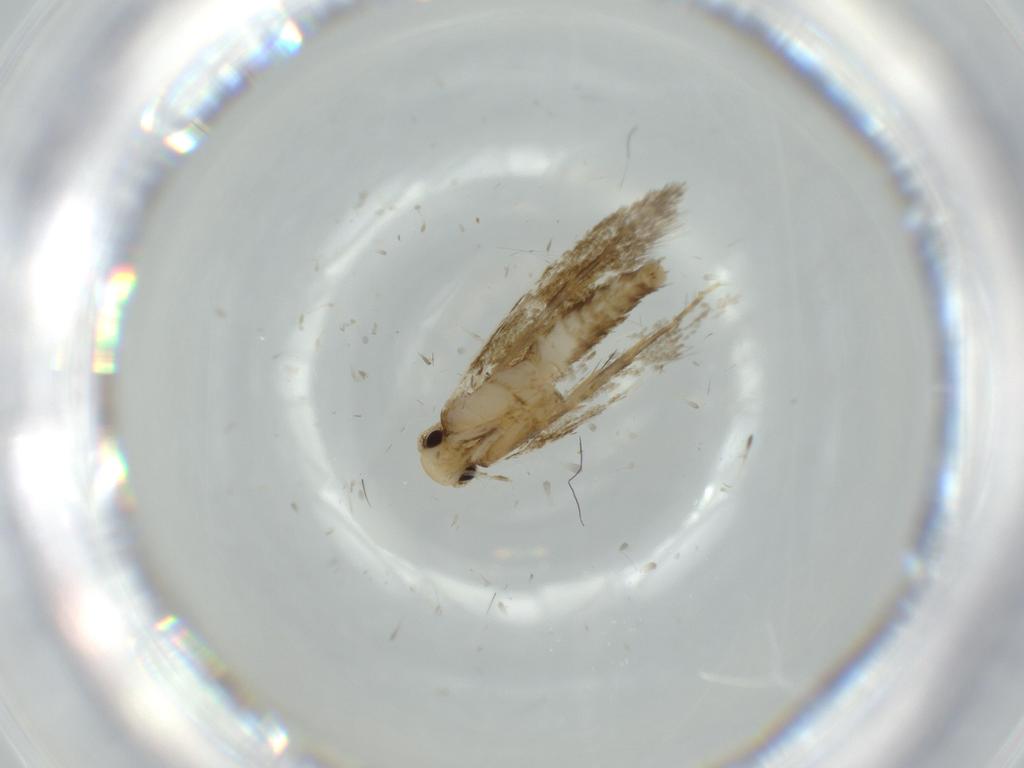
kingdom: Animalia
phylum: Arthropoda
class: Insecta
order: Lepidoptera
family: Tineidae
